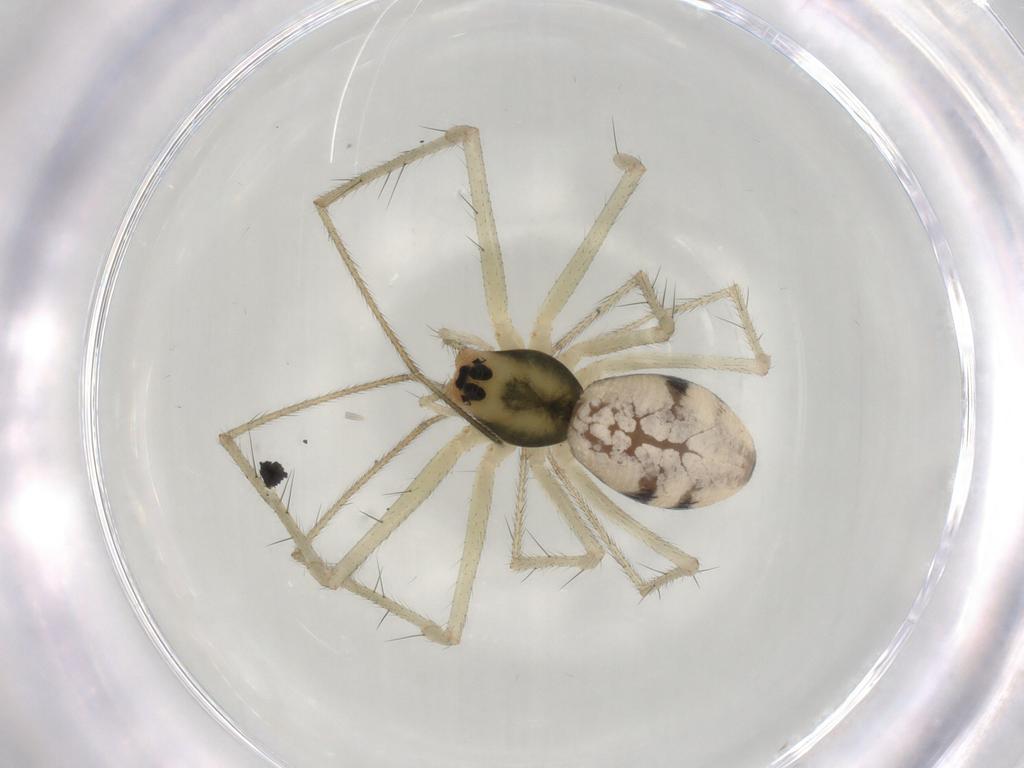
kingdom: Animalia
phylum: Arthropoda
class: Arachnida
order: Araneae
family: Linyphiidae
